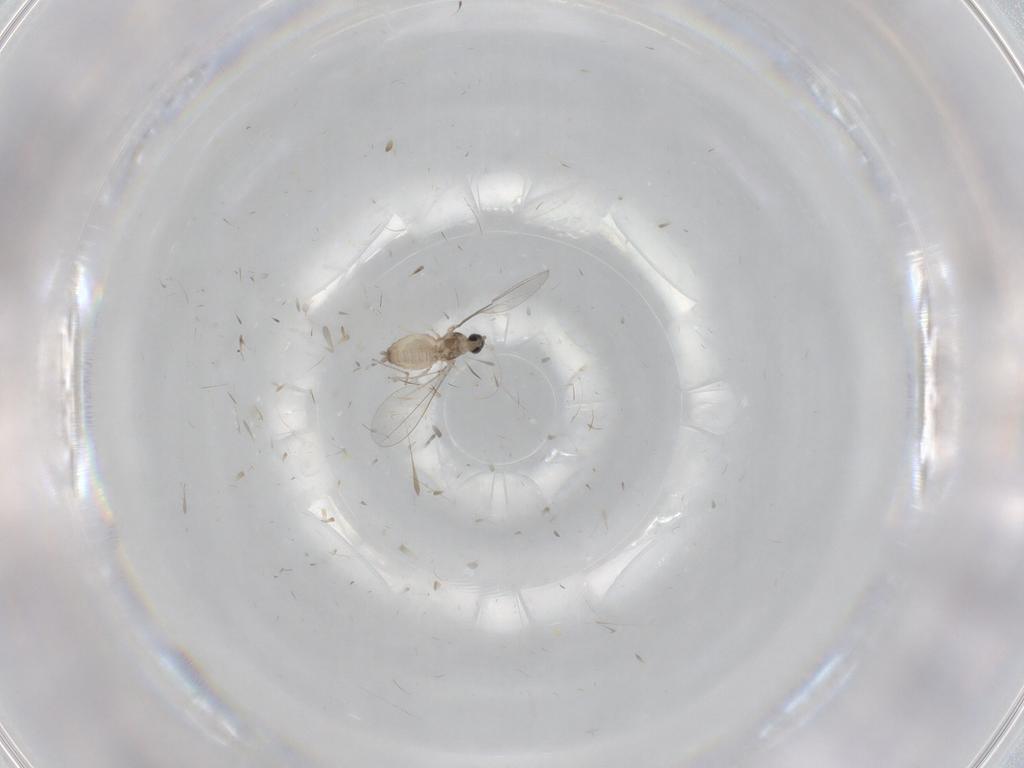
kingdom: Animalia
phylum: Arthropoda
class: Insecta
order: Diptera
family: Cecidomyiidae
